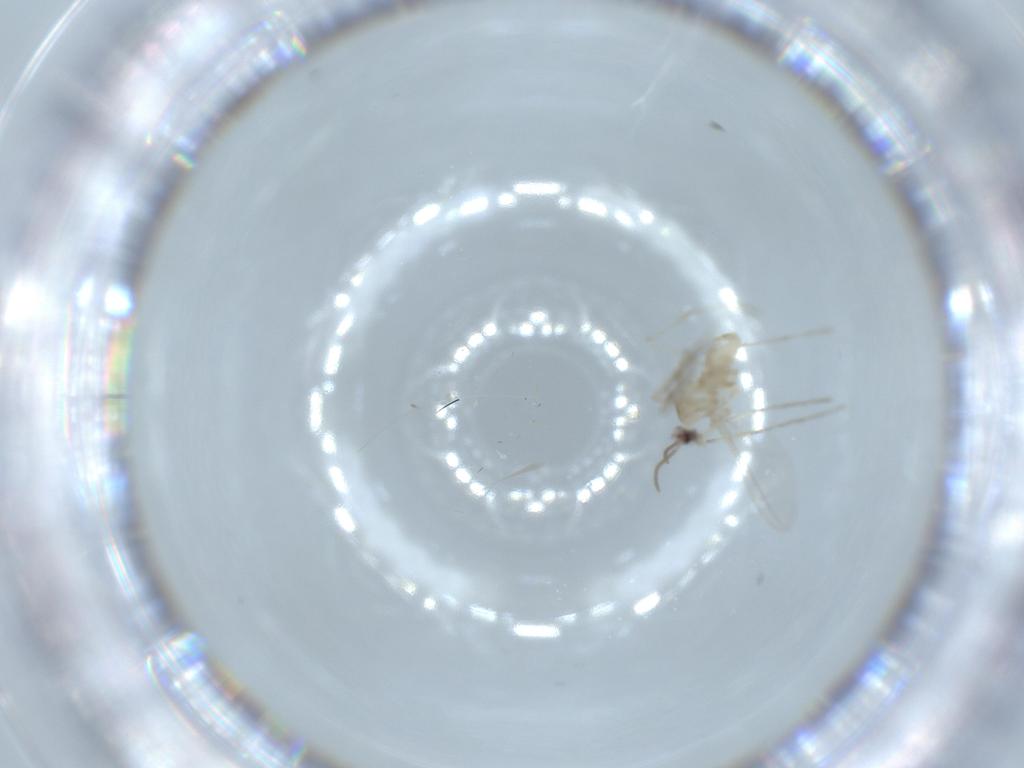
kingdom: Animalia
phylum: Arthropoda
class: Insecta
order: Diptera
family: Cecidomyiidae
